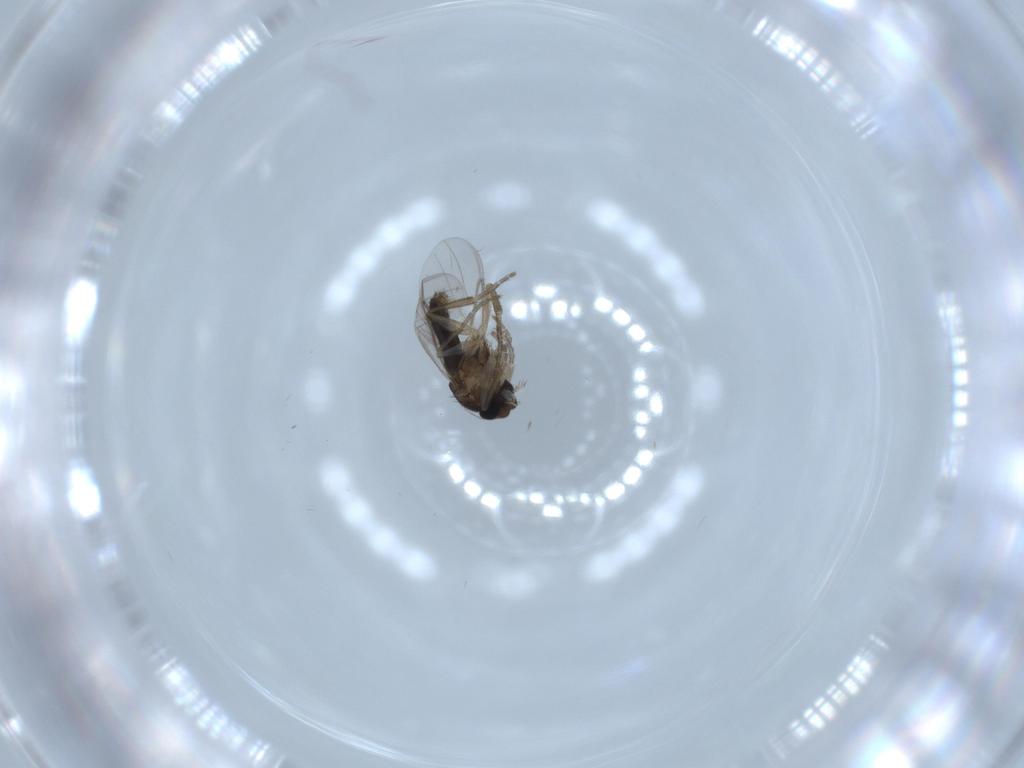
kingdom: Animalia
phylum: Arthropoda
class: Insecta
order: Diptera
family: Phoridae
